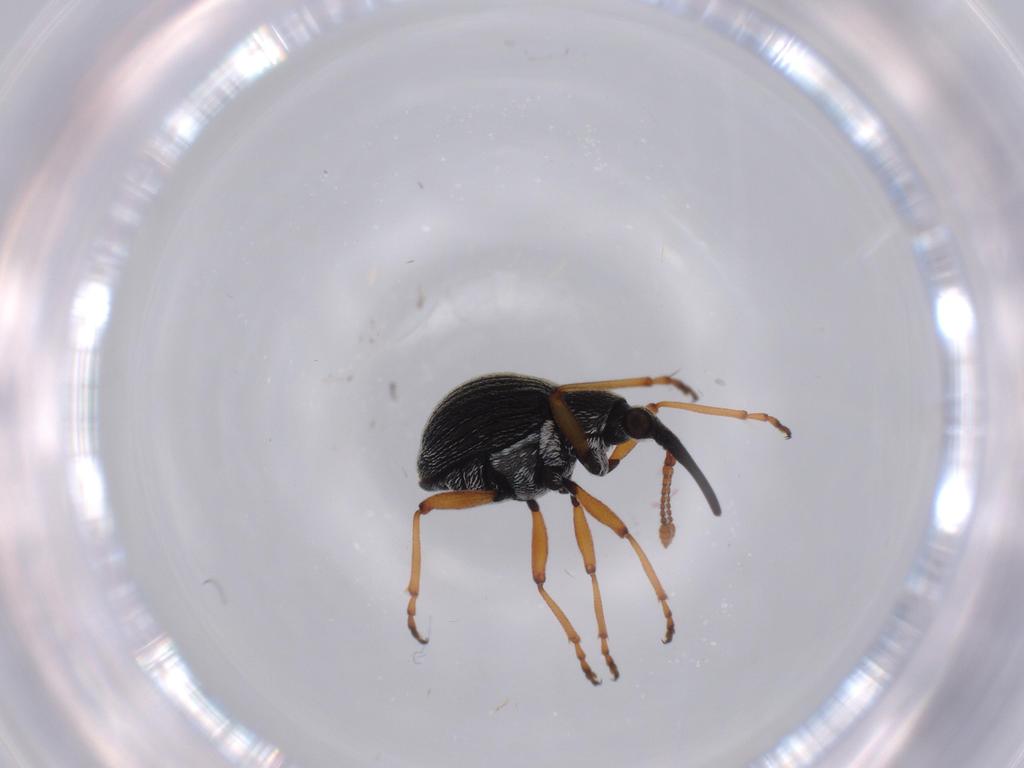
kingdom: Animalia
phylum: Arthropoda
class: Insecta
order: Coleoptera
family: Brentidae
